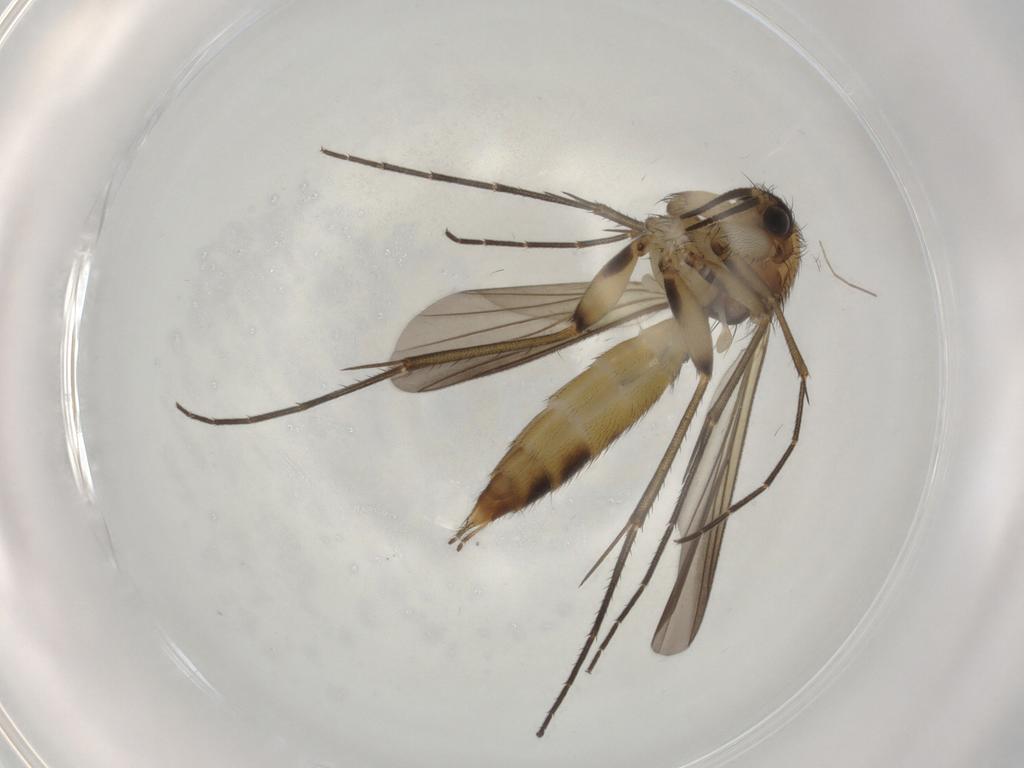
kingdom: Animalia
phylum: Arthropoda
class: Insecta
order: Diptera
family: Mycetophilidae
